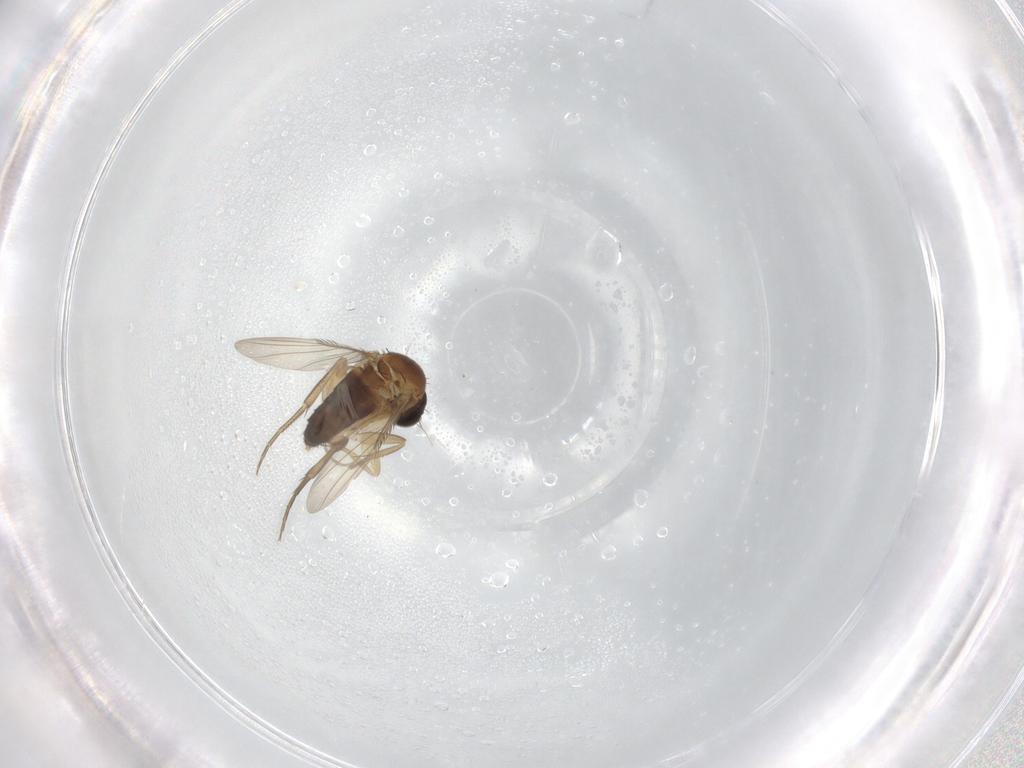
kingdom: Animalia
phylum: Arthropoda
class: Insecta
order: Diptera
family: Phoridae
